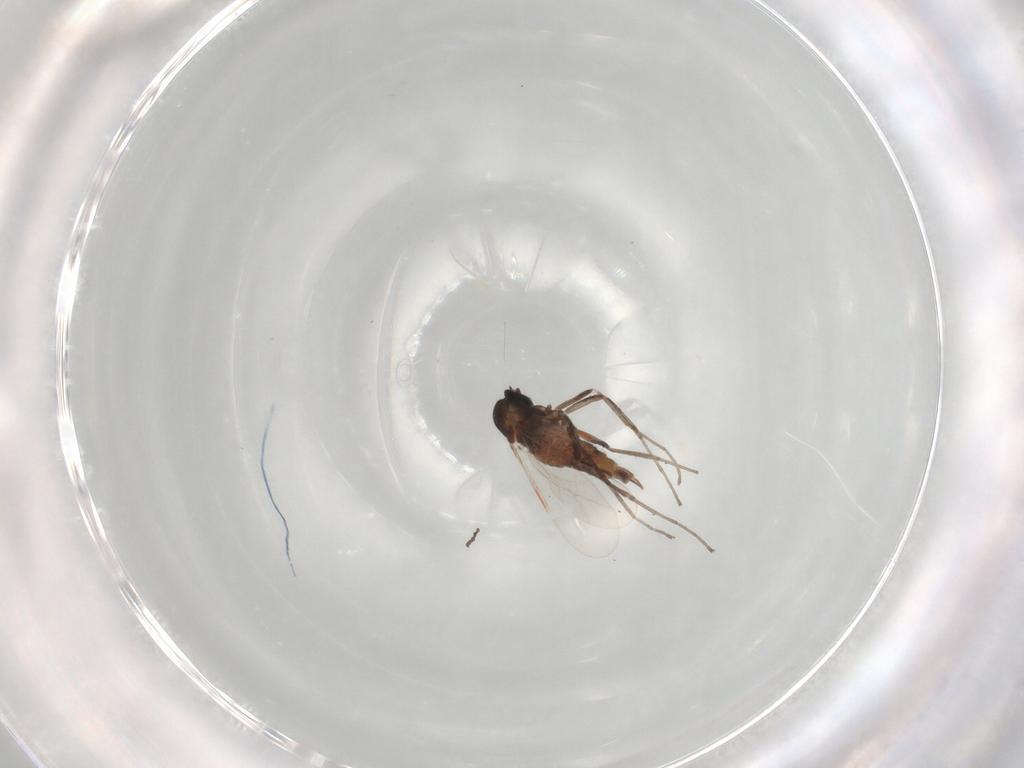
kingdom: Animalia
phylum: Arthropoda
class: Insecta
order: Diptera
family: Cecidomyiidae
